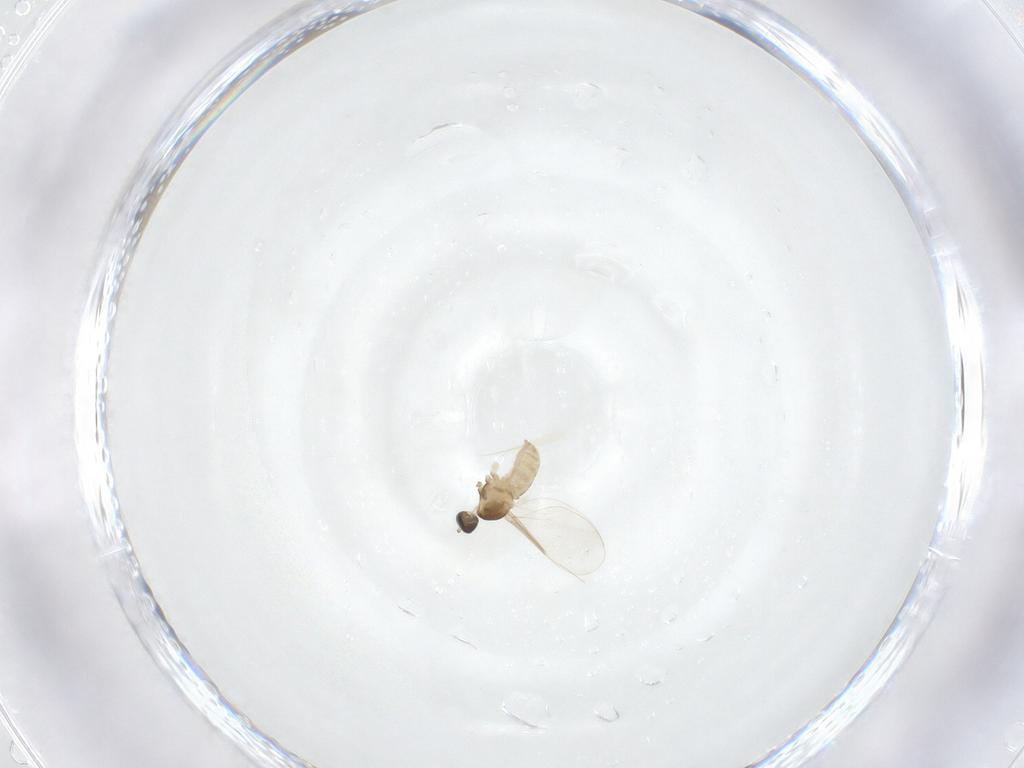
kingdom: Animalia
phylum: Arthropoda
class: Insecta
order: Diptera
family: Cecidomyiidae
